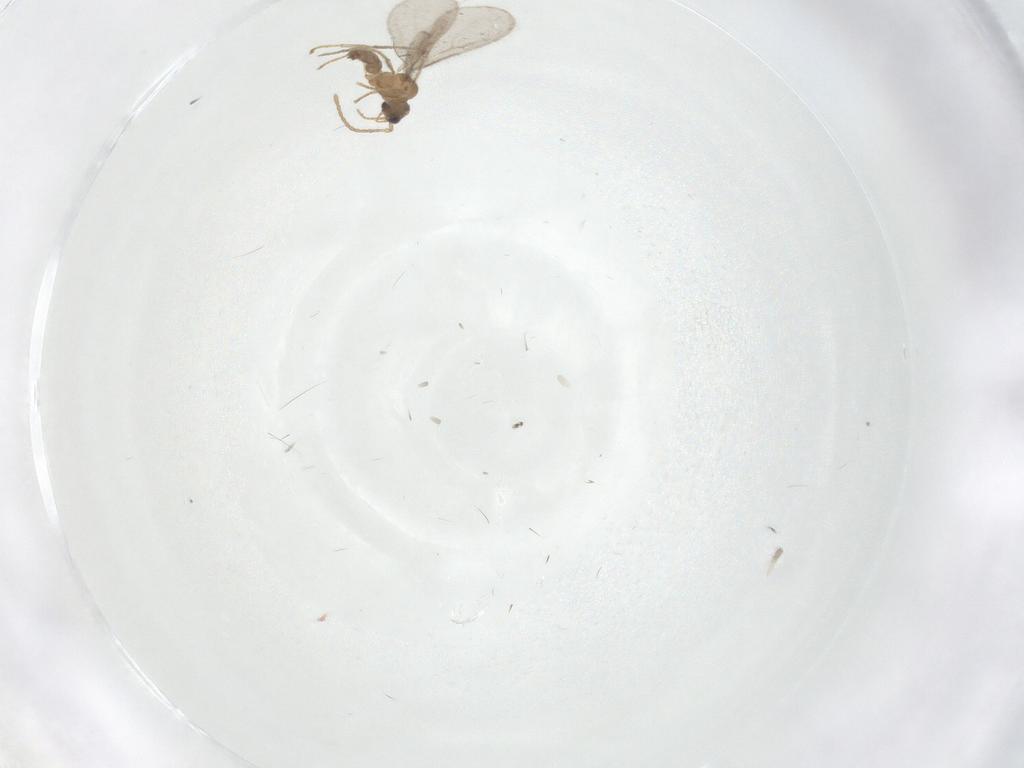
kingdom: Animalia
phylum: Arthropoda
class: Insecta
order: Hymenoptera
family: Formicidae
